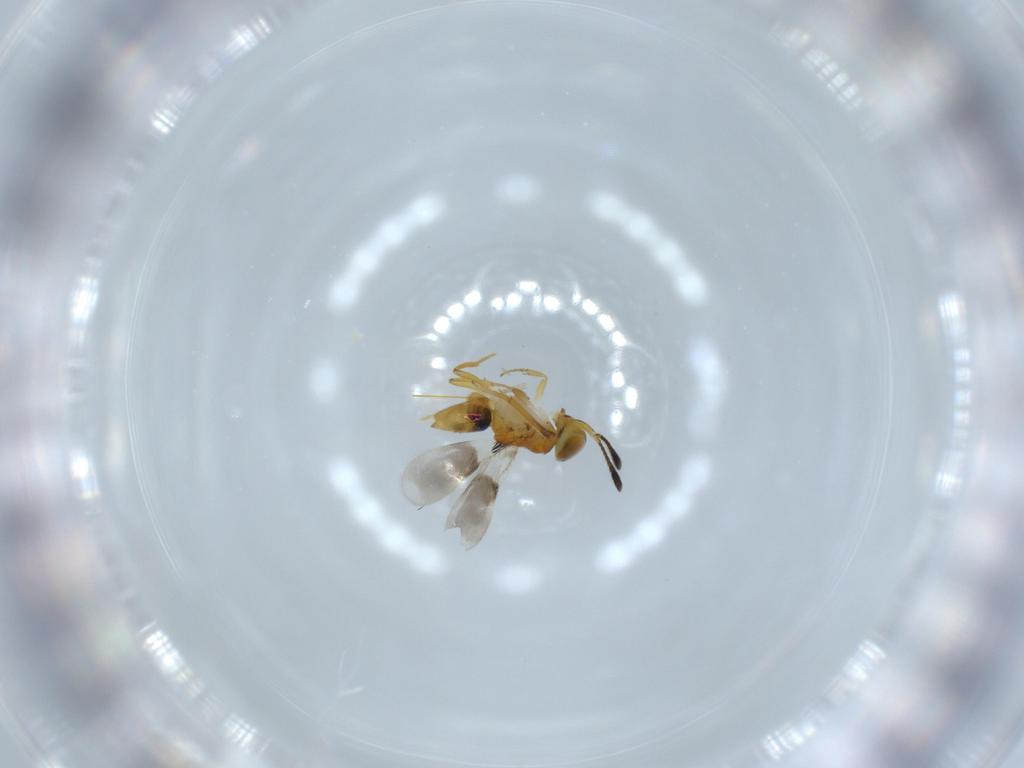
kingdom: Animalia
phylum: Arthropoda
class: Insecta
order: Hymenoptera
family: Encyrtidae
